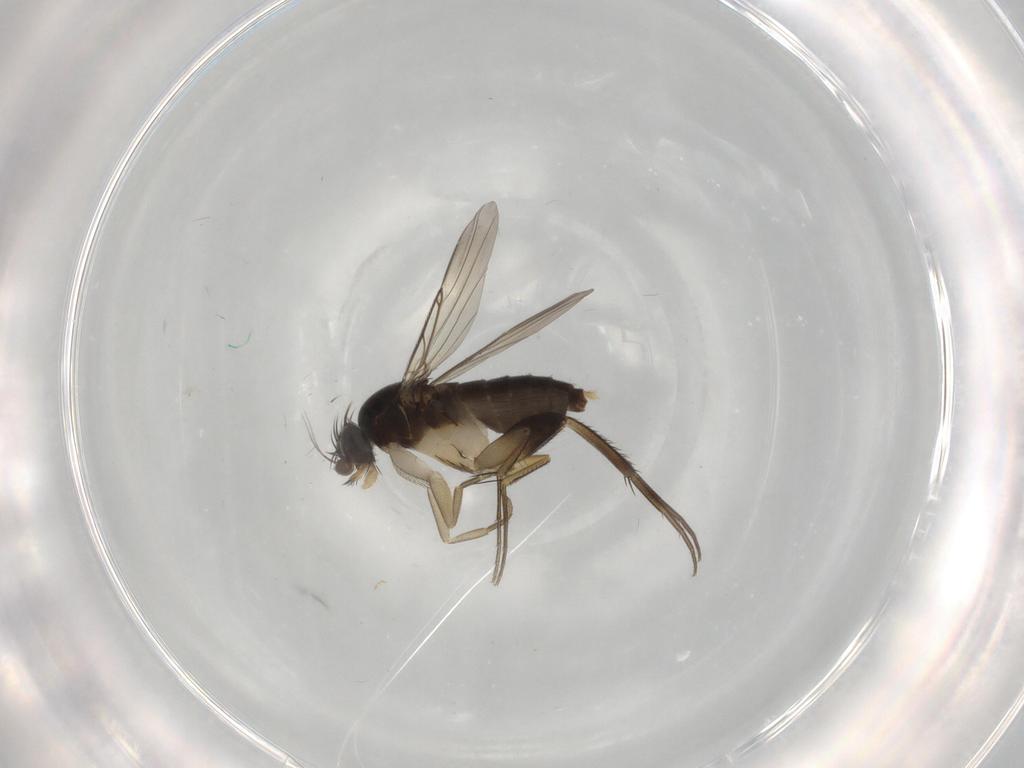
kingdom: Animalia
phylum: Arthropoda
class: Insecta
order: Diptera
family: Phoridae
